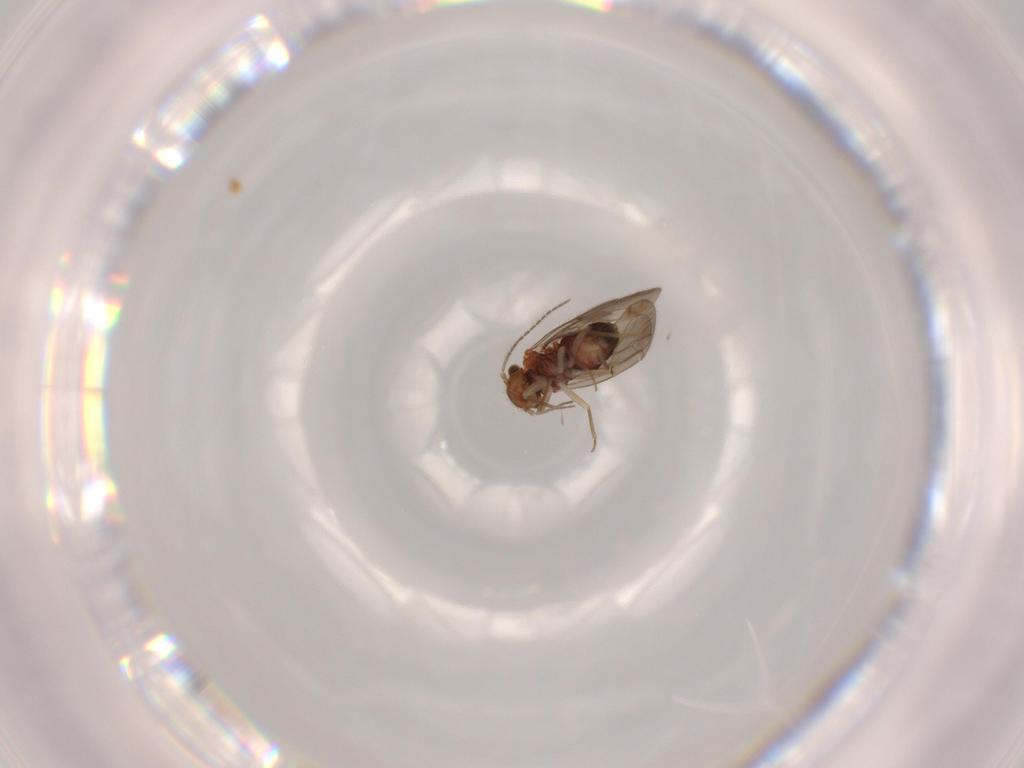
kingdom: Animalia
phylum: Arthropoda
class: Insecta
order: Psocodea
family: Ectopsocidae
